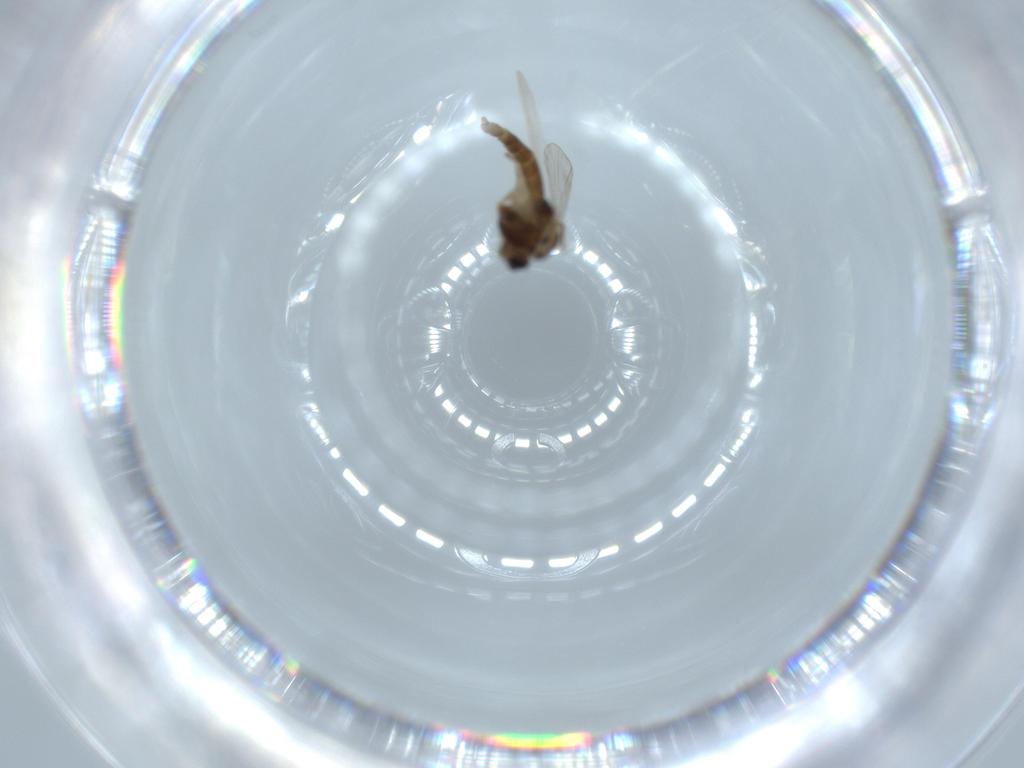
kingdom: Animalia
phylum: Arthropoda
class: Insecta
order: Diptera
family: Chironomidae
